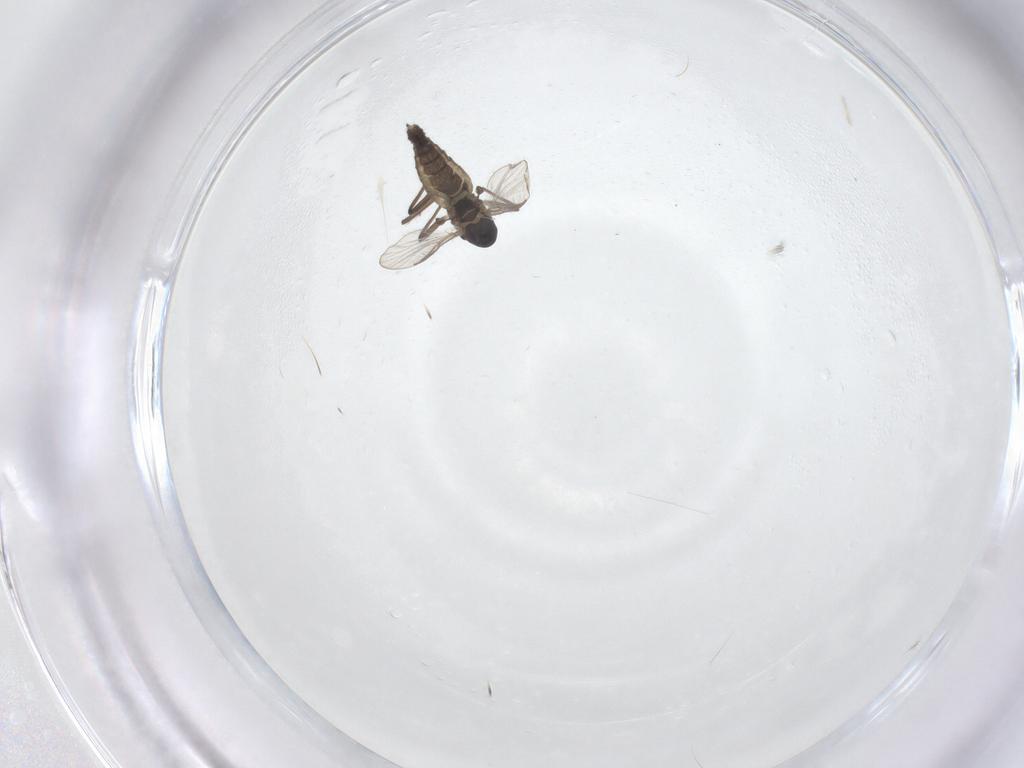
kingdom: Animalia
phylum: Arthropoda
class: Insecta
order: Diptera
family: Chironomidae
